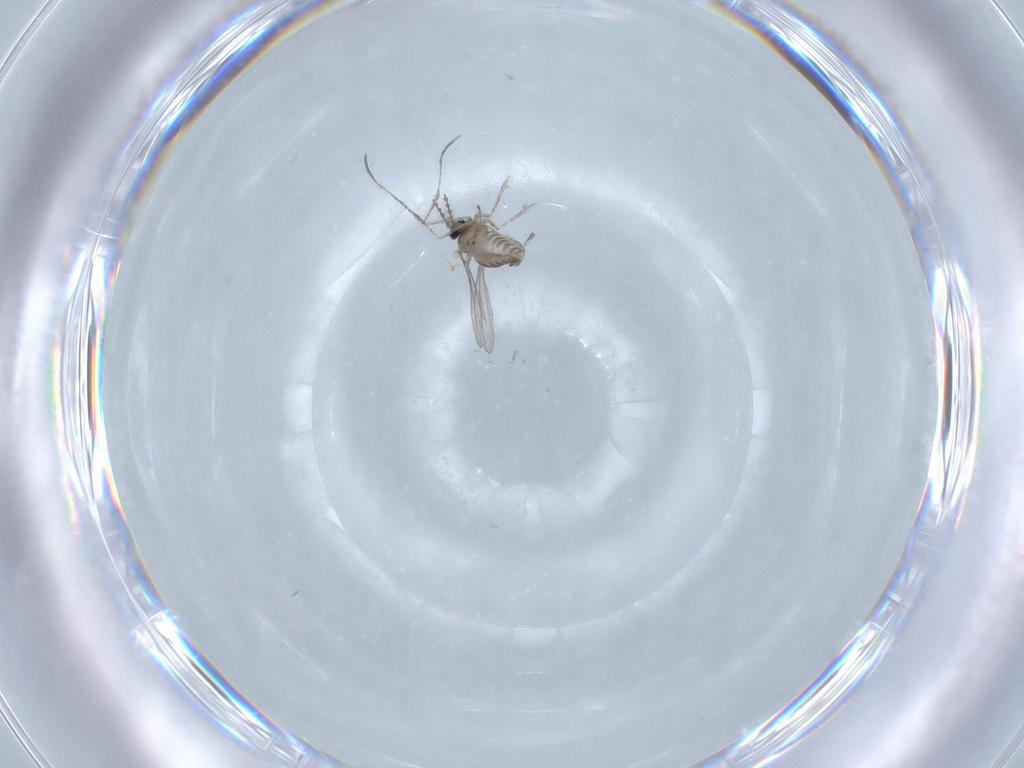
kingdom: Animalia
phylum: Arthropoda
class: Insecta
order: Diptera
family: Cecidomyiidae
